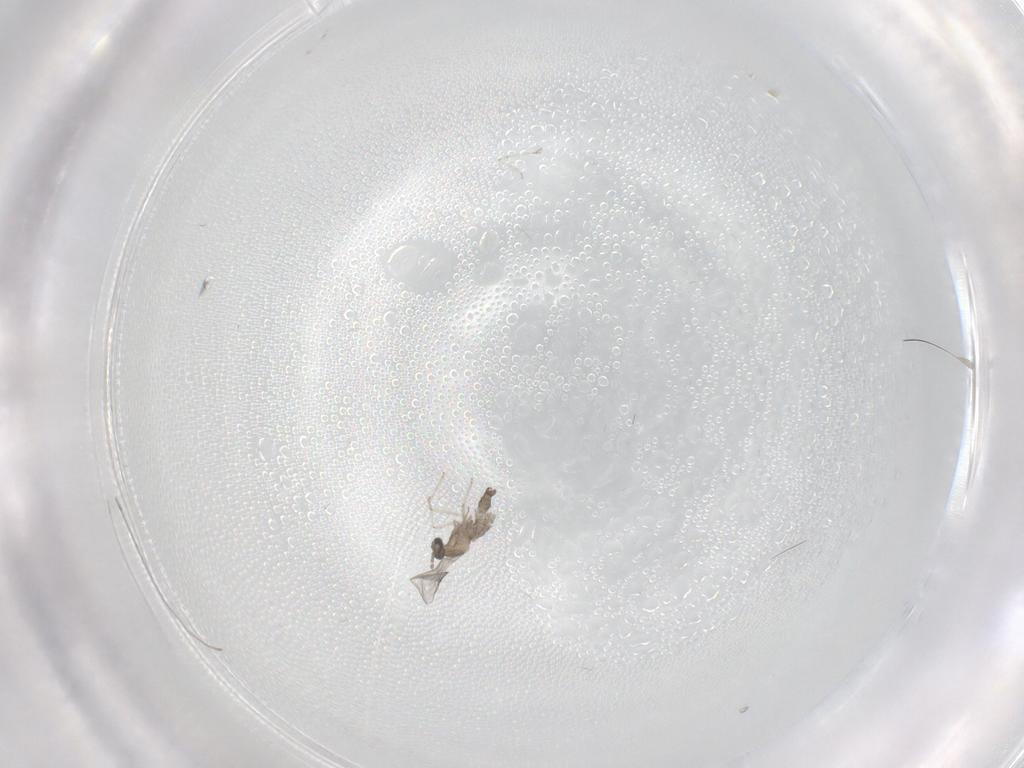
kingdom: Animalia
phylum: Arthropoda
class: Insecta
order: Diptera
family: Cecidomyiidae
